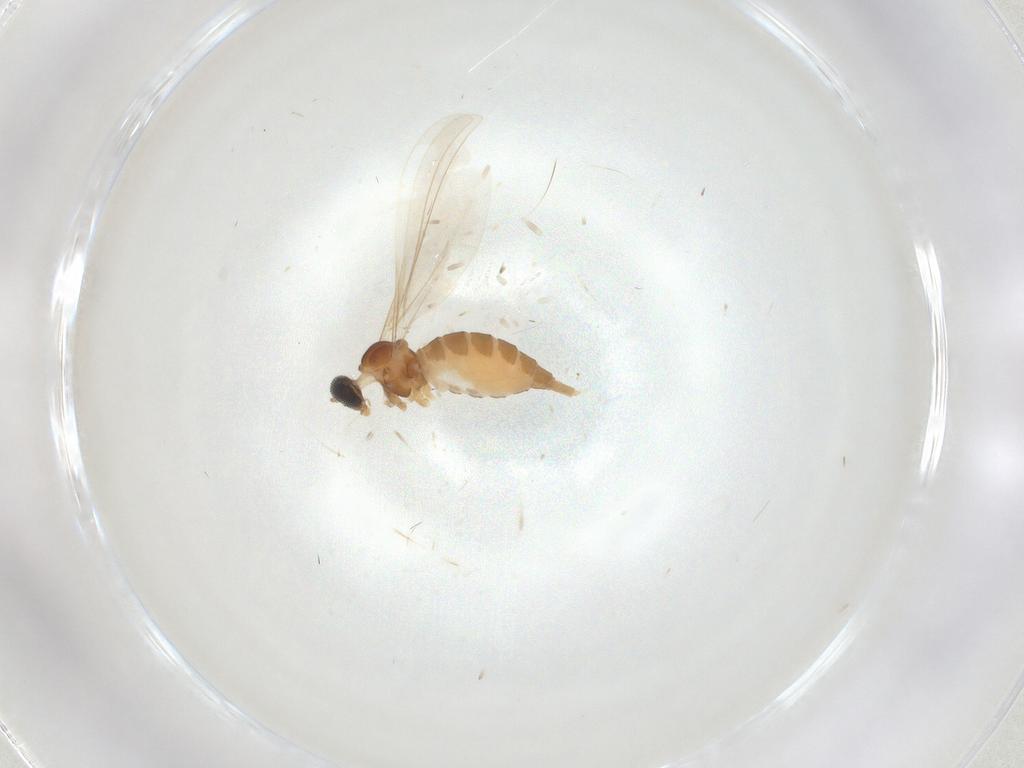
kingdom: Animalia
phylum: Arthropoda
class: Insecta
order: Diptera
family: Sciaridae
